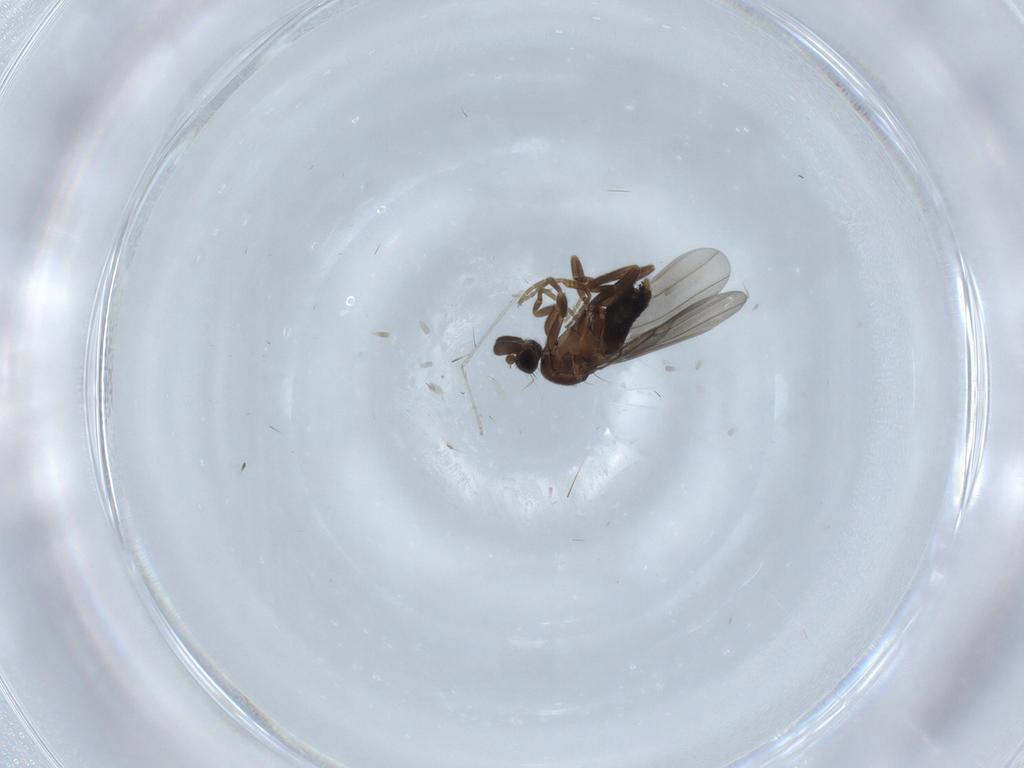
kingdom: Animalia
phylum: Arthropoda
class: Insecta
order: Diptera
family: Phoridae
